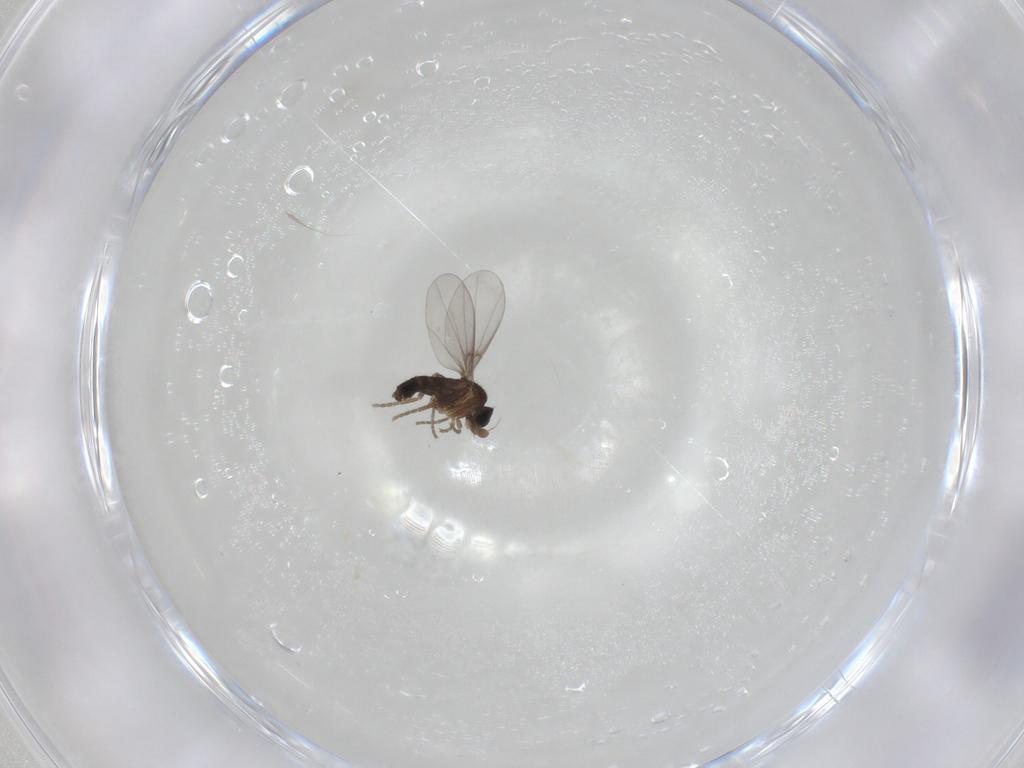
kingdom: Animalia
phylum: Arthropoda
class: Insecta
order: Diptera
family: Phoridae
